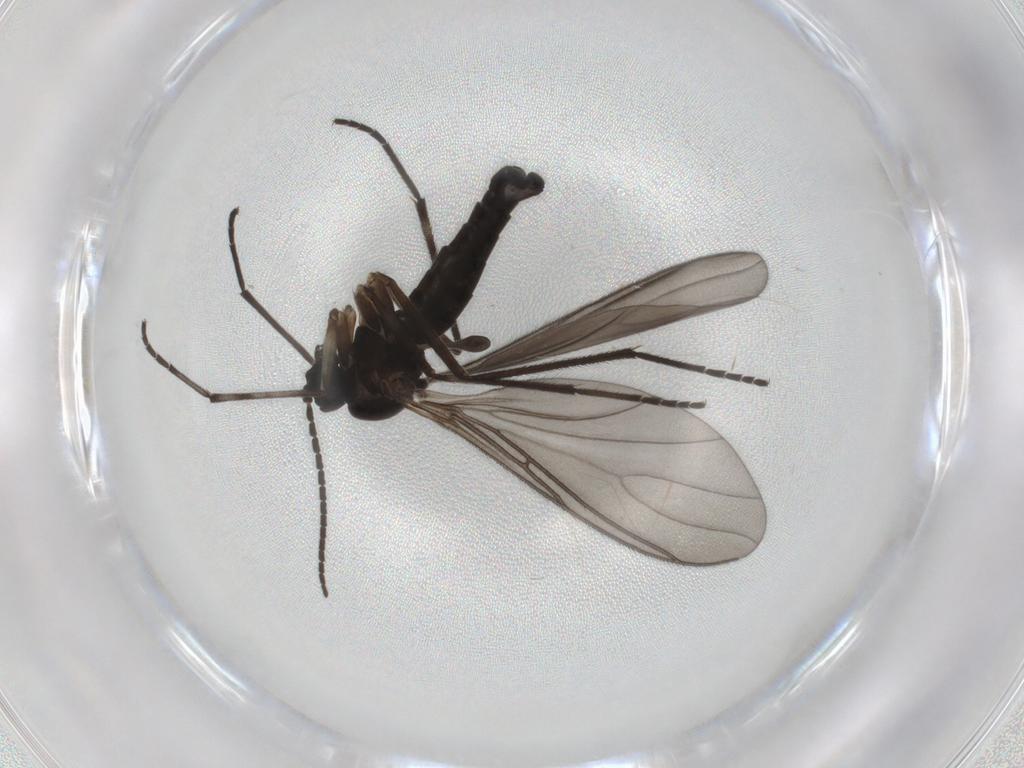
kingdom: Animalia
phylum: Arthropoda
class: Insecta
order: Diptera
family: Sciaridae
